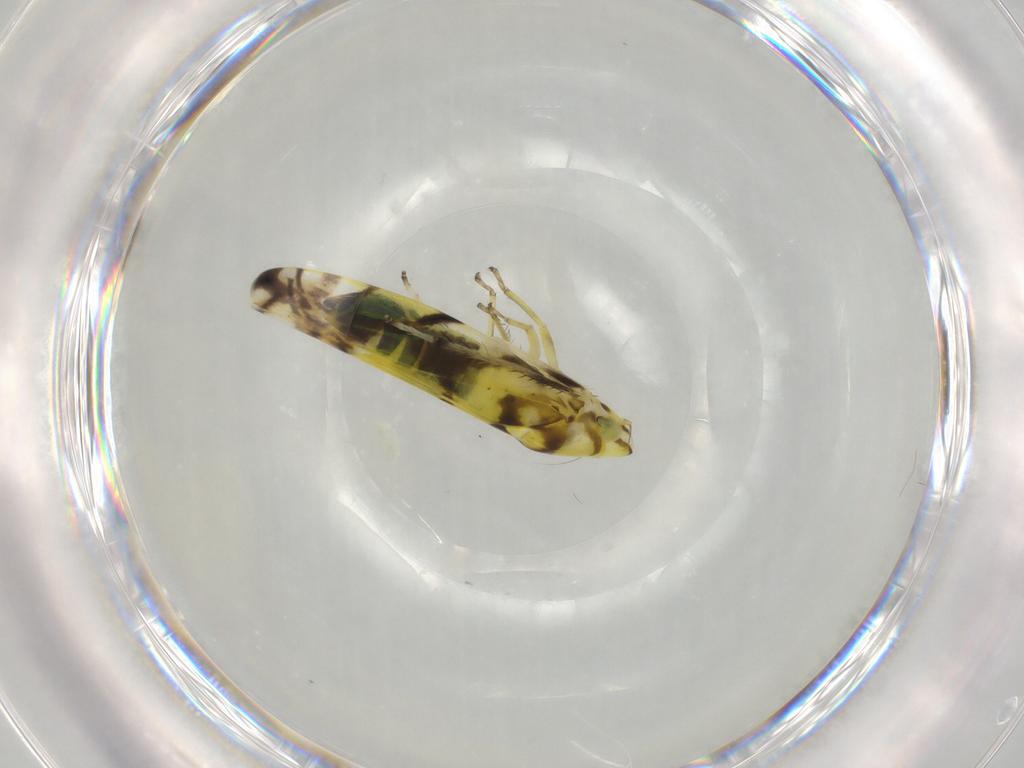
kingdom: Animalia
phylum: Arthropoda
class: Insecta
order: Hemiptera
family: Cicadellidae
